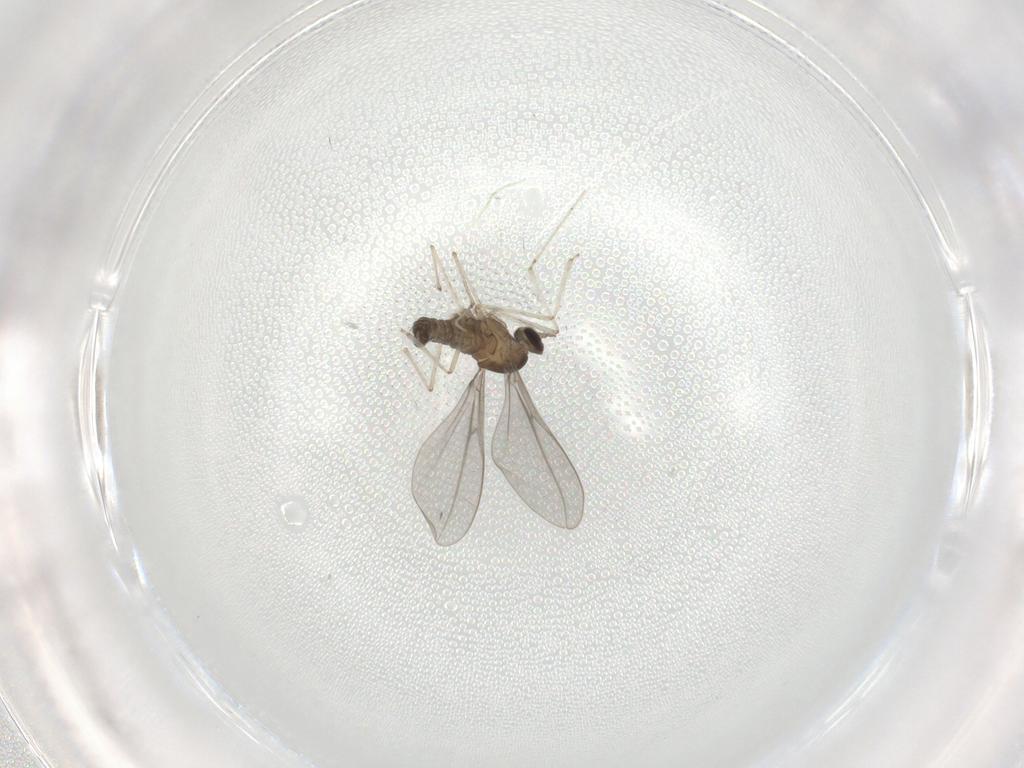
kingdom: Animalia
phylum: Arthropoda
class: Insecta
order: Diptera
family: Cecidomyiidae
